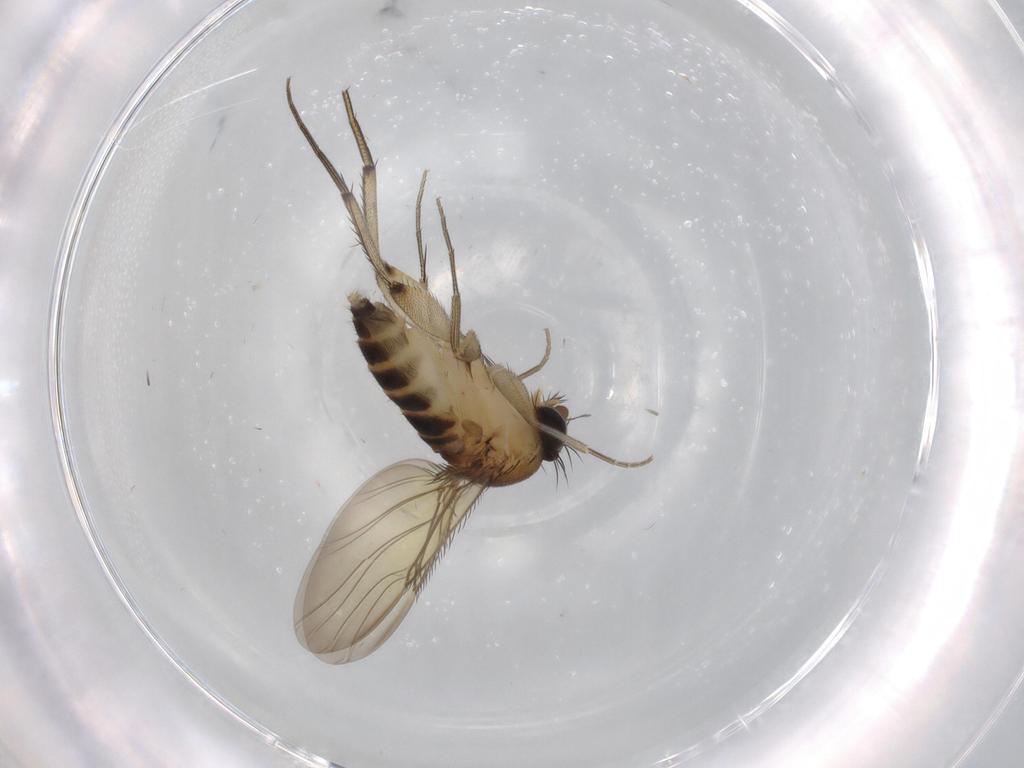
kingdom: Animalia
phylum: Arthropoda
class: Insecta
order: Diptera
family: Phoridae
